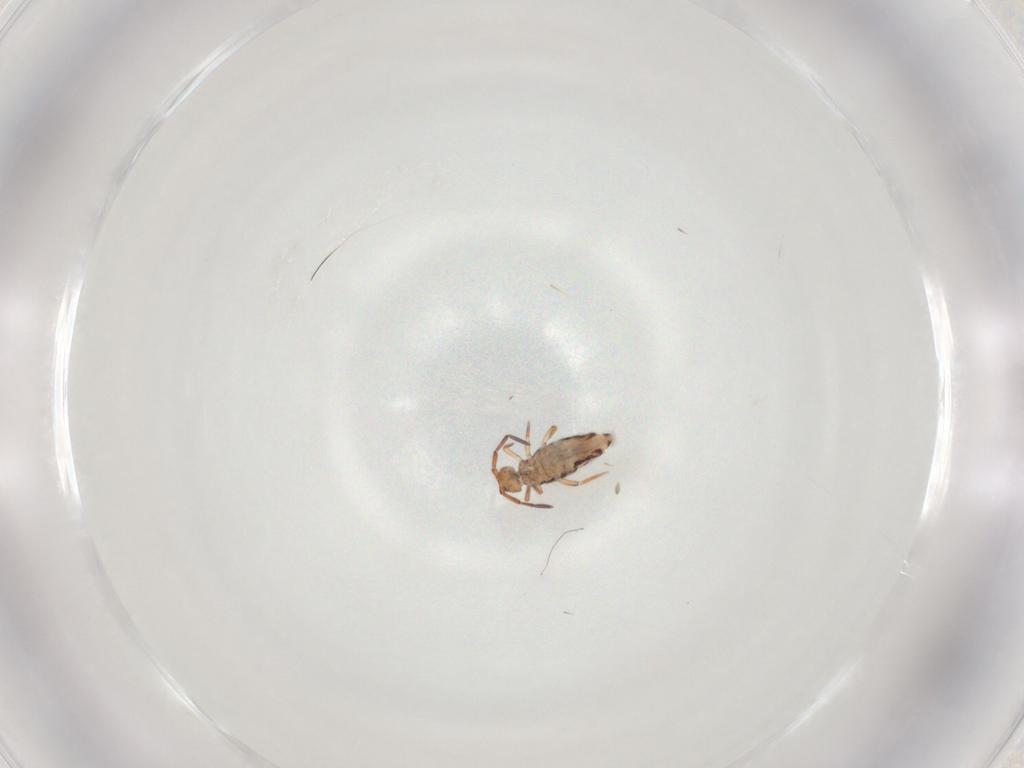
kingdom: Animalia
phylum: Arthropoda
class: Collembola
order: Entomobryomorpha
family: Entomobryidae
